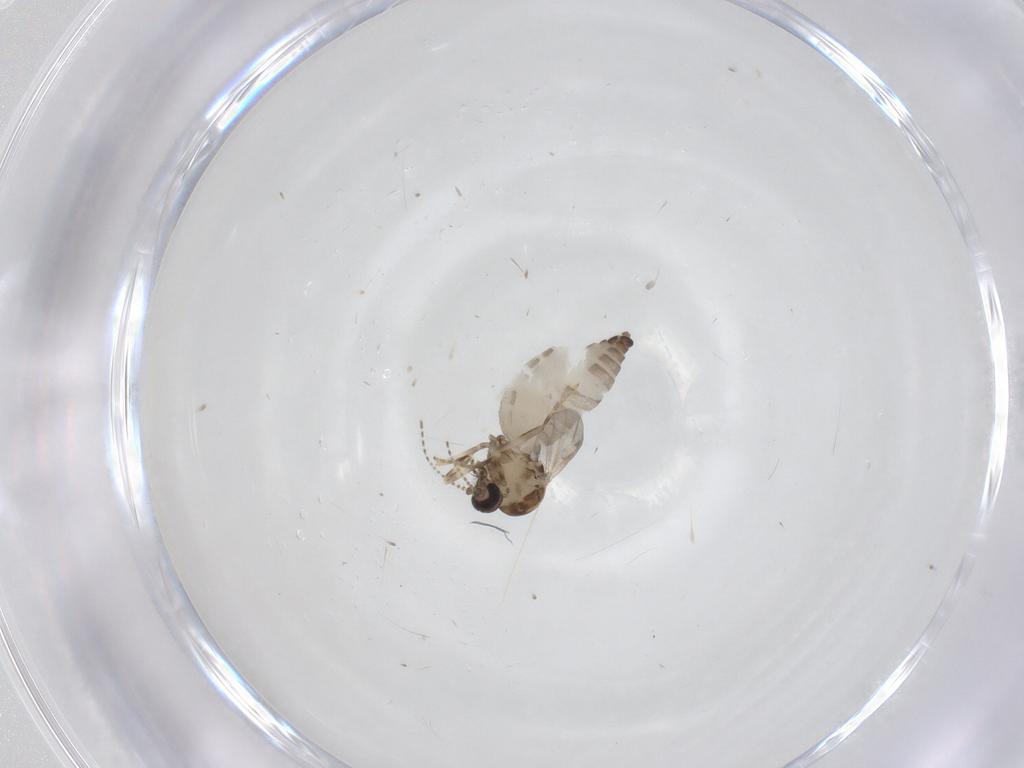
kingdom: Animalia
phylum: Arthropoda
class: Insecta
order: Diptera
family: Ceratopogonidae
